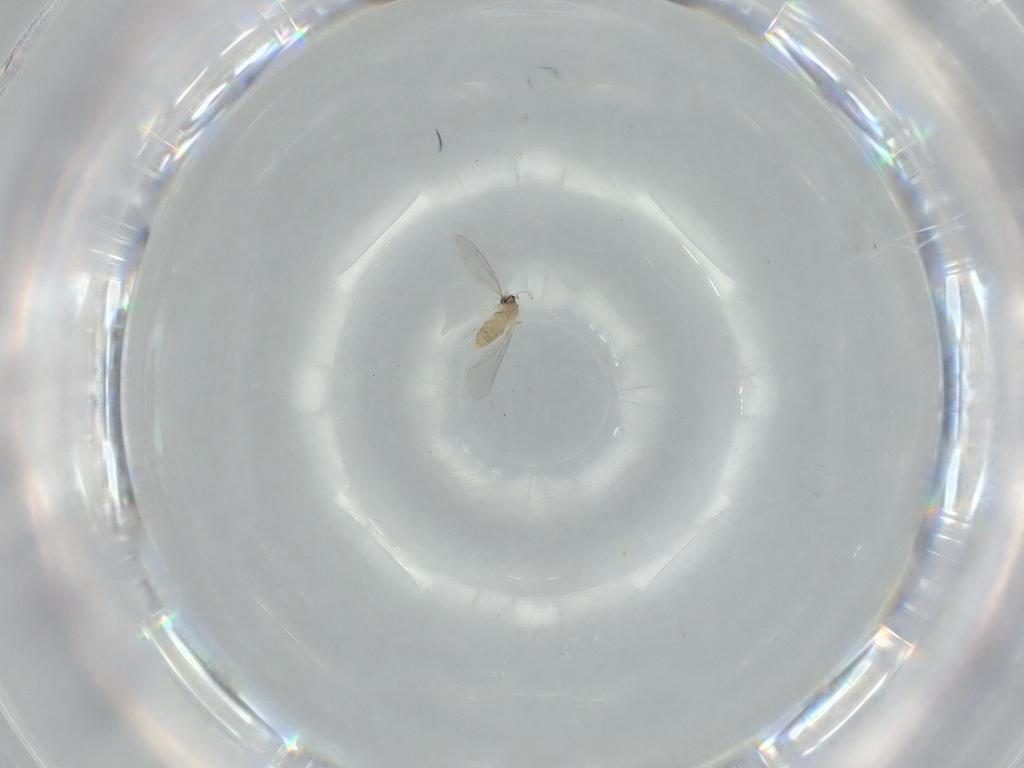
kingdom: Animalia
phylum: Arthropoda
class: Insecta
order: Diptera
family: Cecidomyiidae
